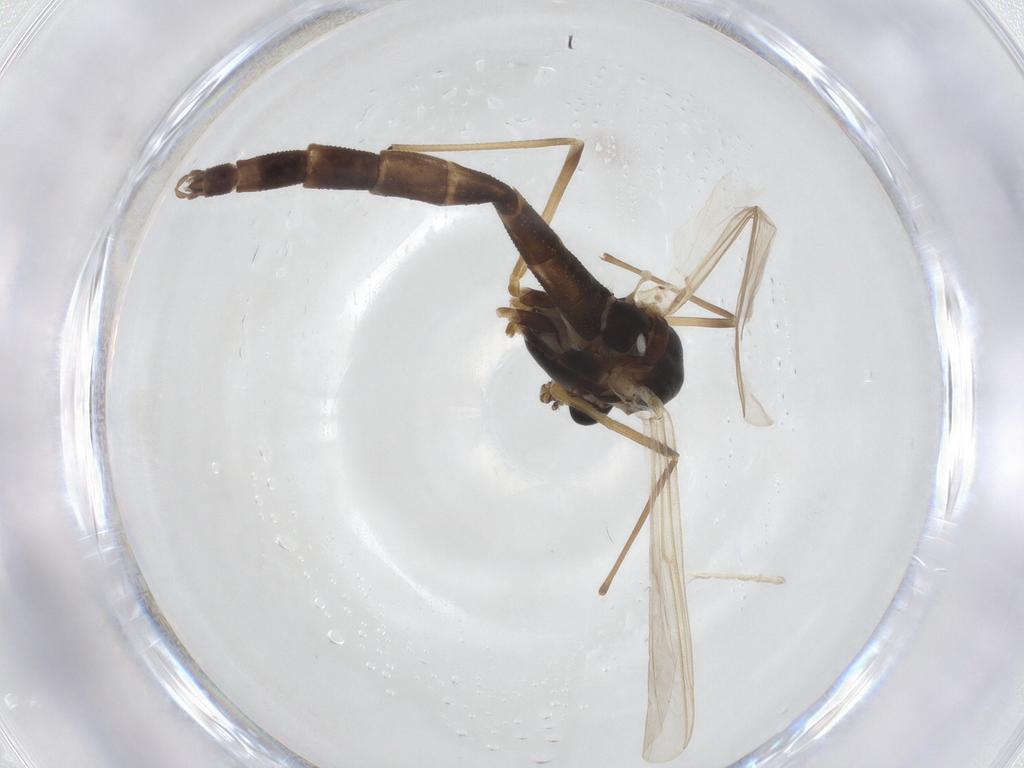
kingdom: Animalia
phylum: Arthropoda
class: Insecta
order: Diptera
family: Chironomidae
